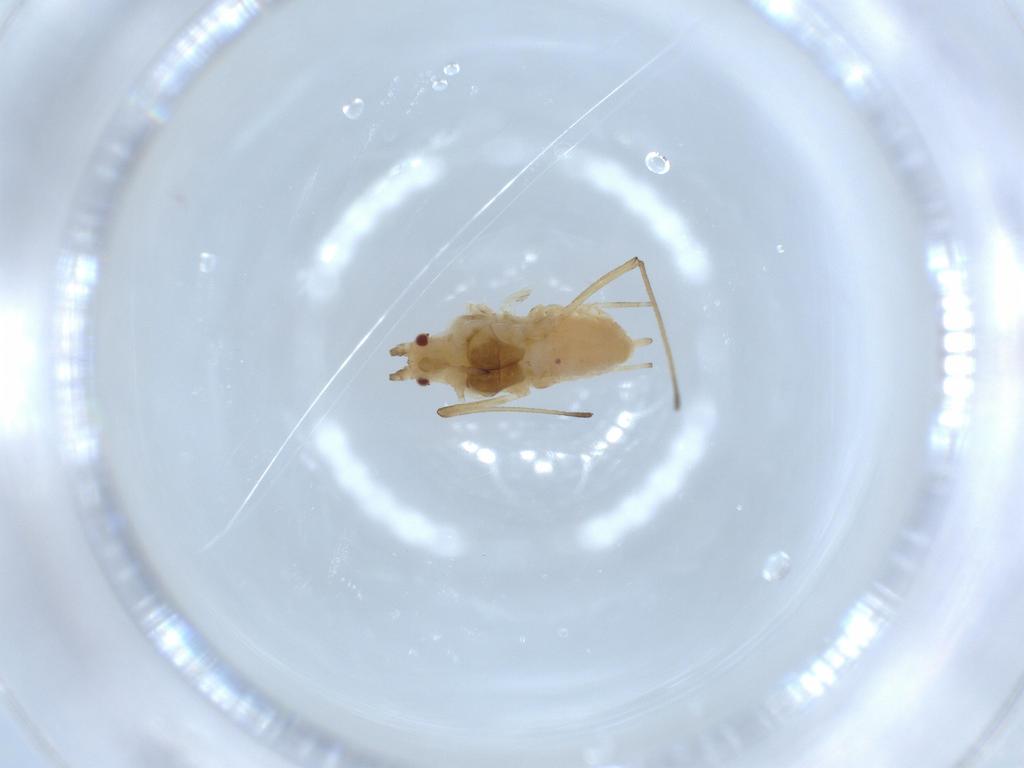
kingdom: Animalia
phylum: Arthropoda
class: Insecta
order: Hemiptera
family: Aphididae
